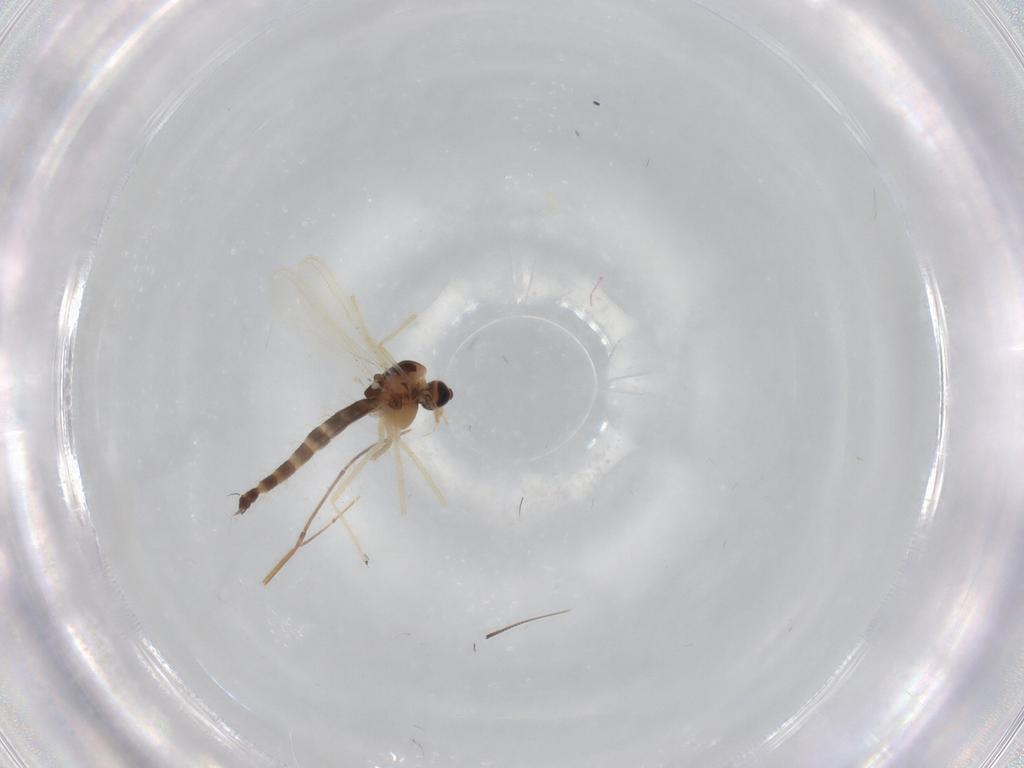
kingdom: Animalia
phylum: Arthropoda
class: Insecta
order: Diptera
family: Chironomidae
